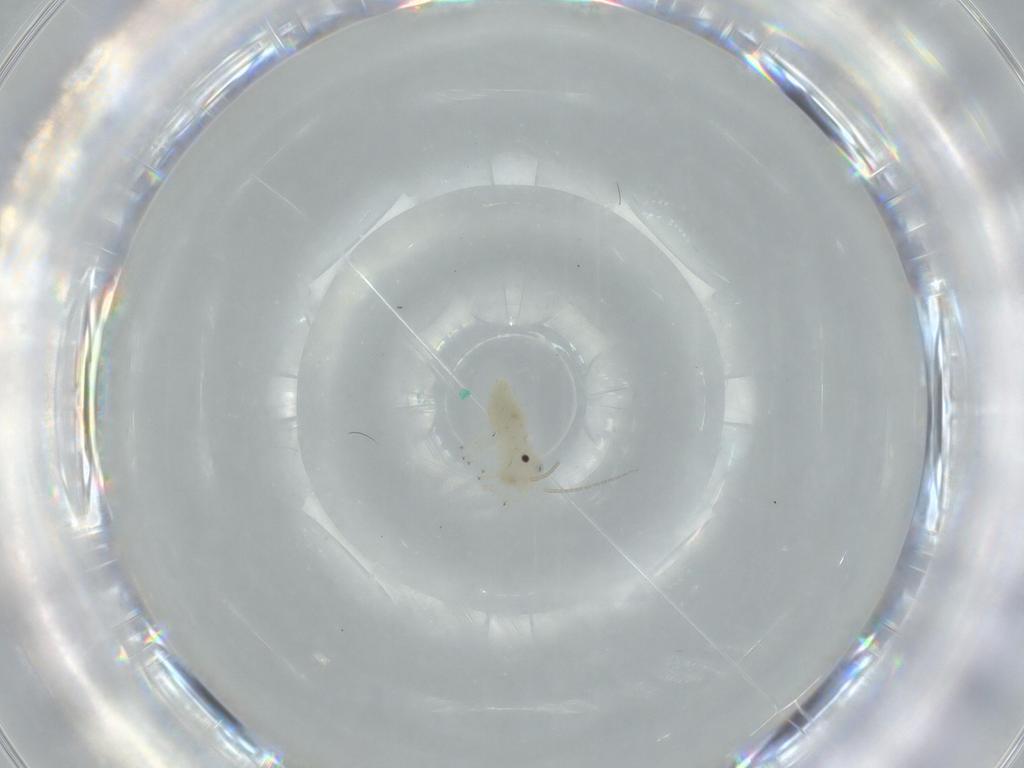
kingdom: Animalia
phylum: Arthropoda
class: Insecta
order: Psocodea
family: Caeciliusidae
